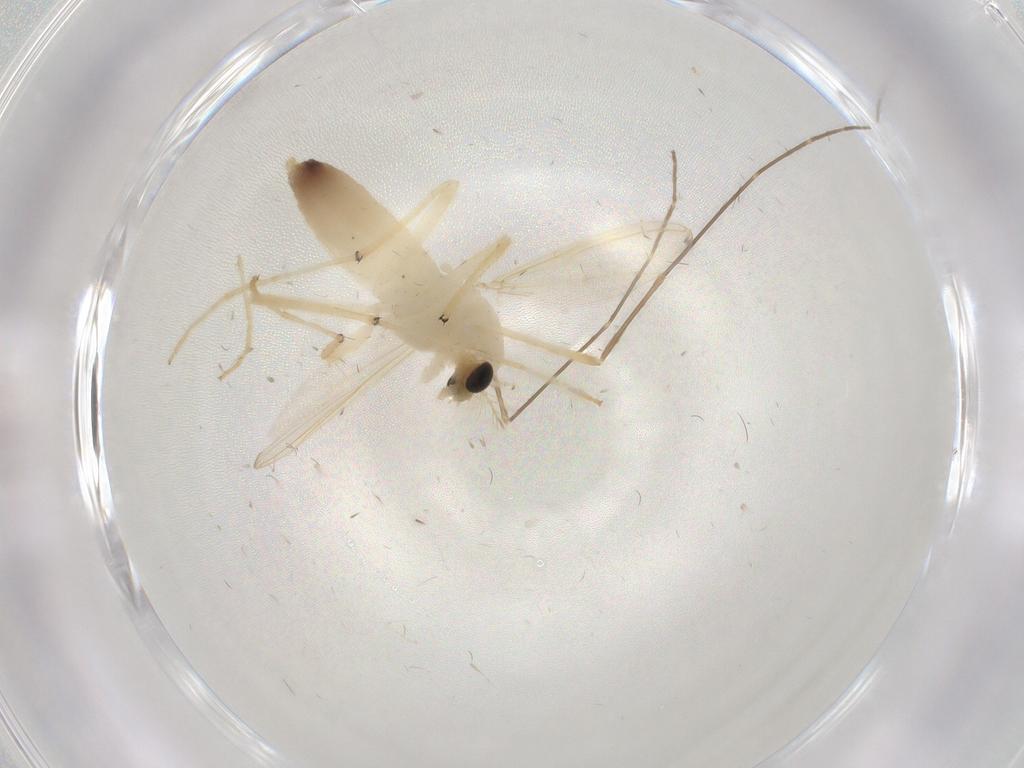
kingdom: Animalia
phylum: Arthropoda
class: Insecta
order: Diptera
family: Chironomidae
